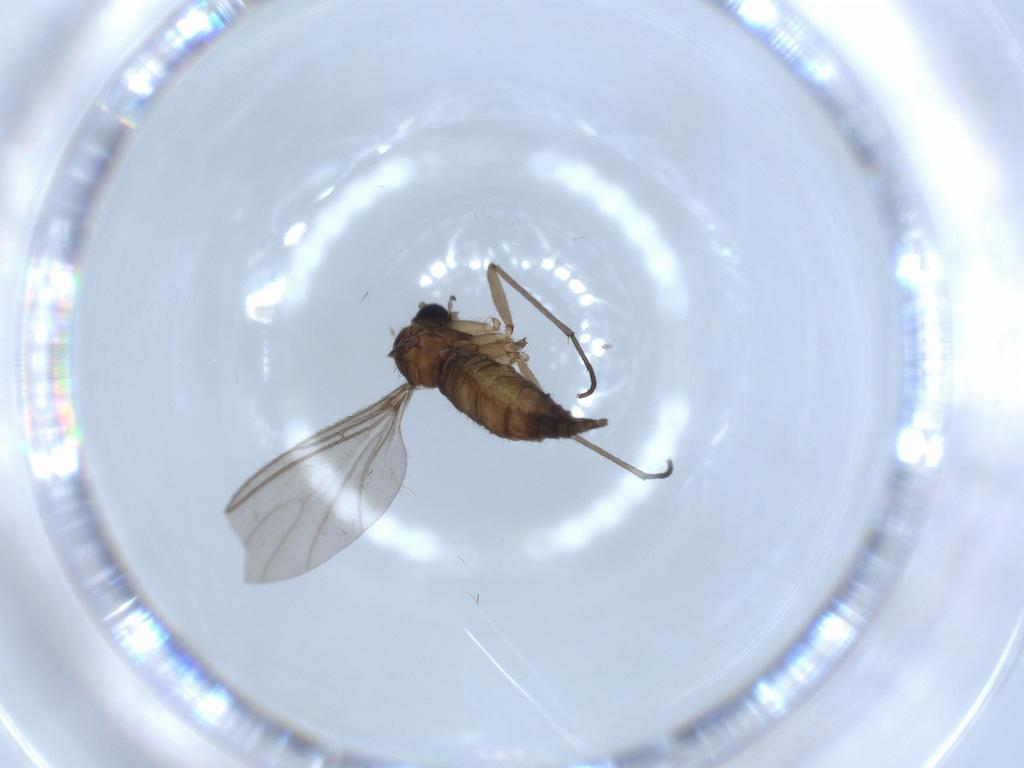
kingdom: Animalia
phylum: Arthropoda
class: Insecta
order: Diptera
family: Sciaridae
